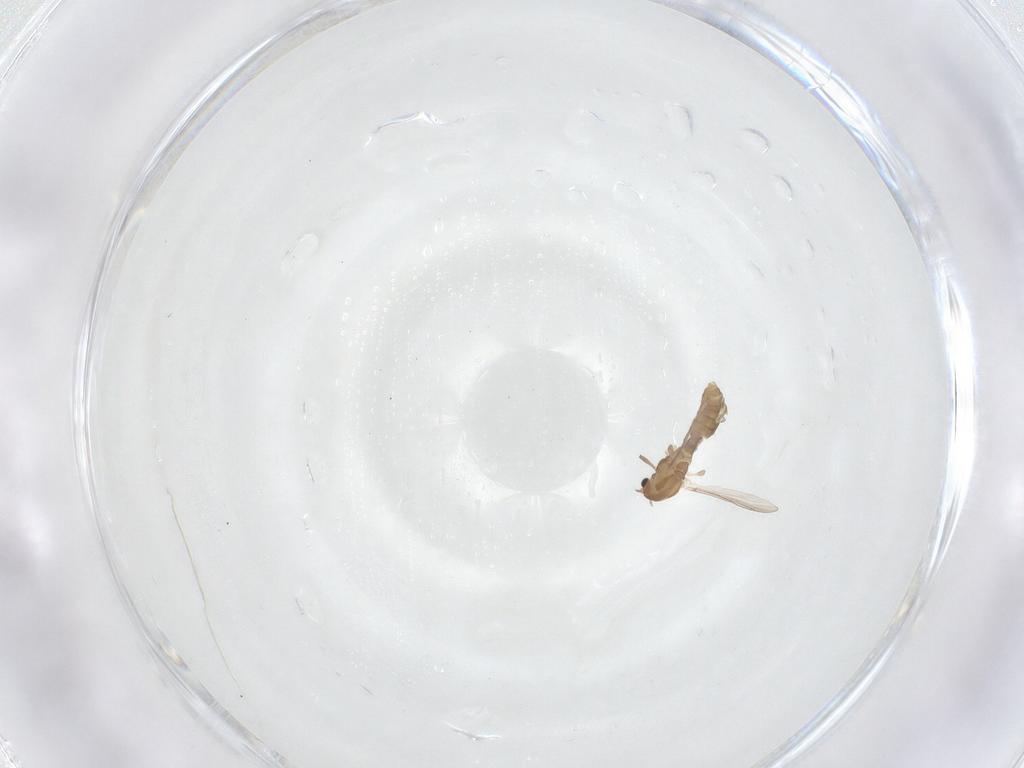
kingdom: Animalia
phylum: Arthropoda
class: Insecta
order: Diptera
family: Chironomidae
